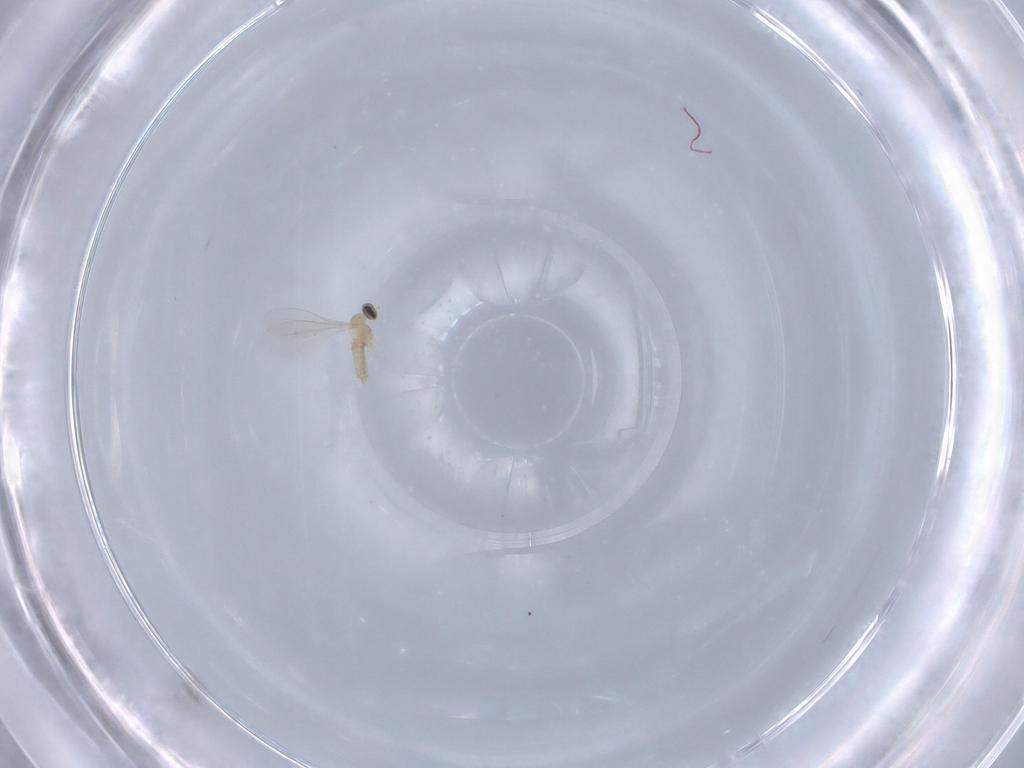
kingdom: Animalia
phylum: Arthropoda
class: Insecta
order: Diptera
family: Cecidomyiidae
